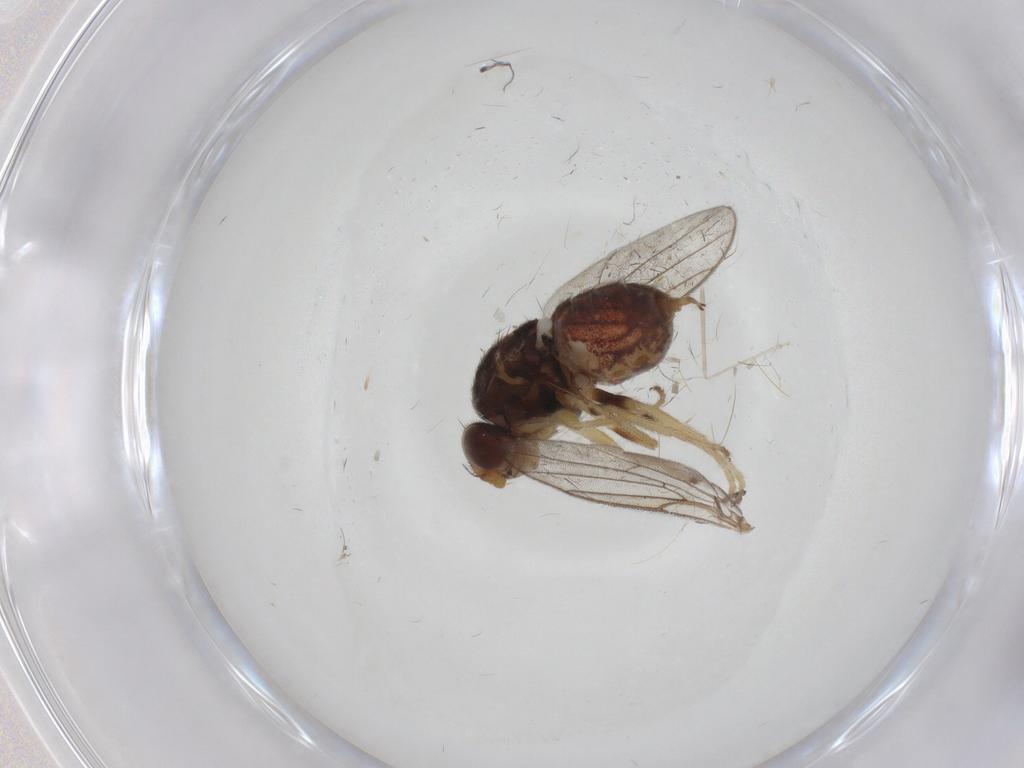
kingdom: Animalia
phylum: Arthropoda
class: Insecta
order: Diptera
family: Chloropidae
